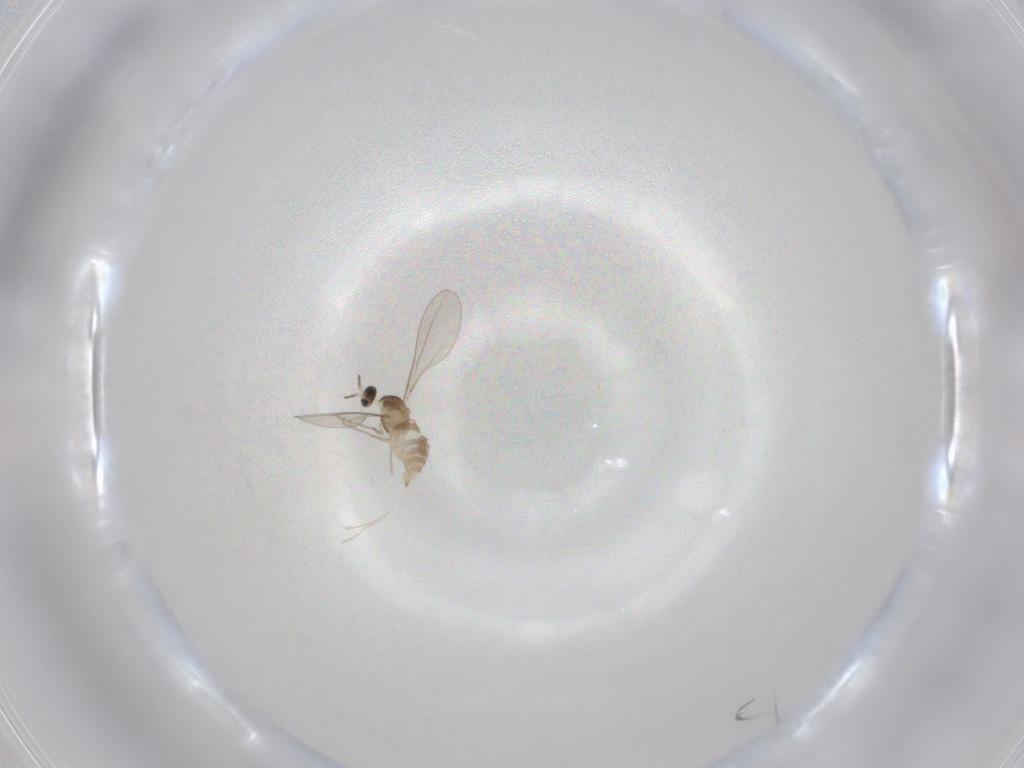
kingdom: Animalia
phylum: Arthropoda
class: Insecta
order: Diptera
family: Cecidomyiidae
